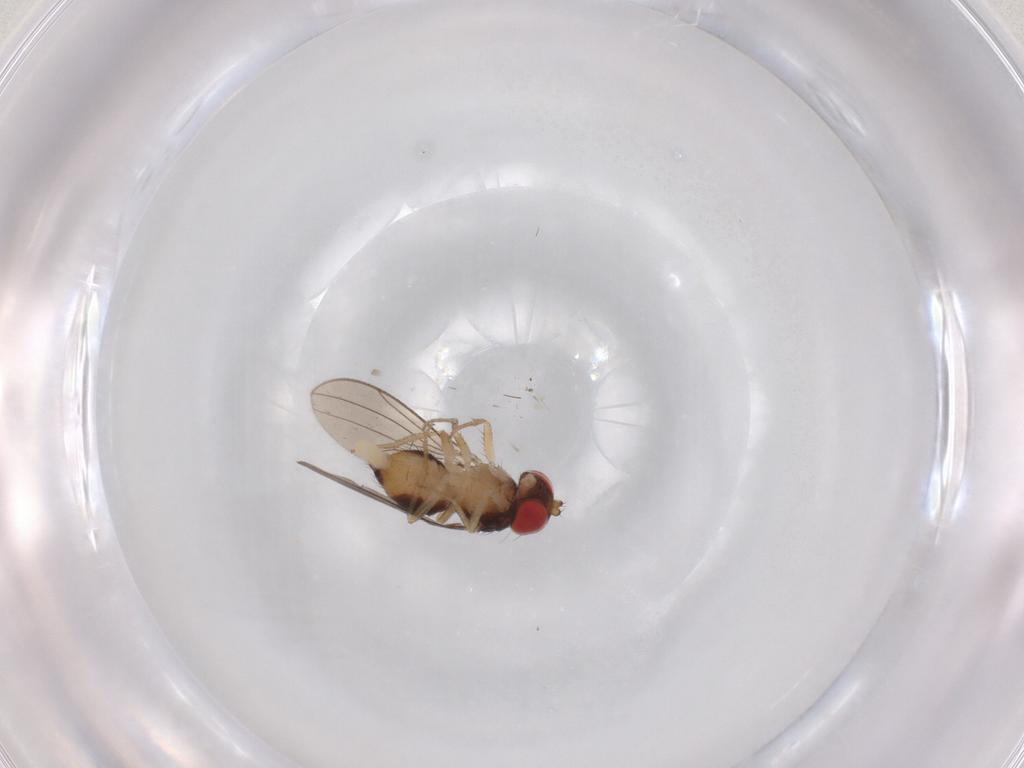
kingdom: Animalia
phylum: Arthropoda
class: Insecta
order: Diptera
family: Drosophilidae
